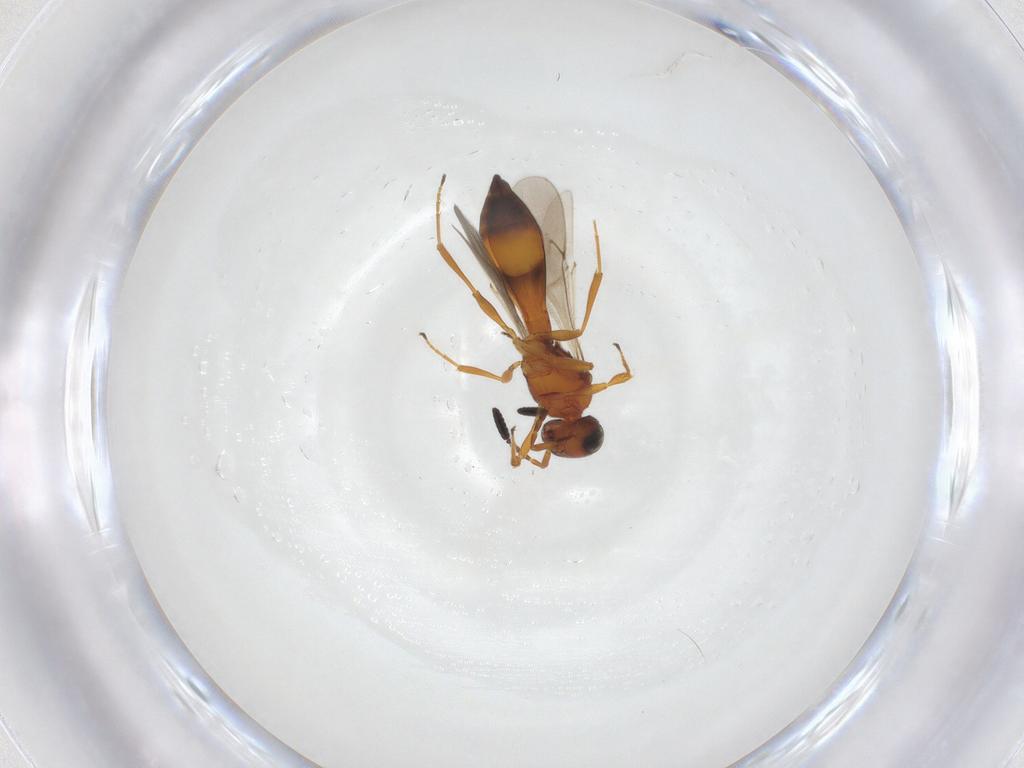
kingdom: Animalia
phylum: Arthropoda
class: Insecta
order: Hymenoptera
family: Scelionidae
